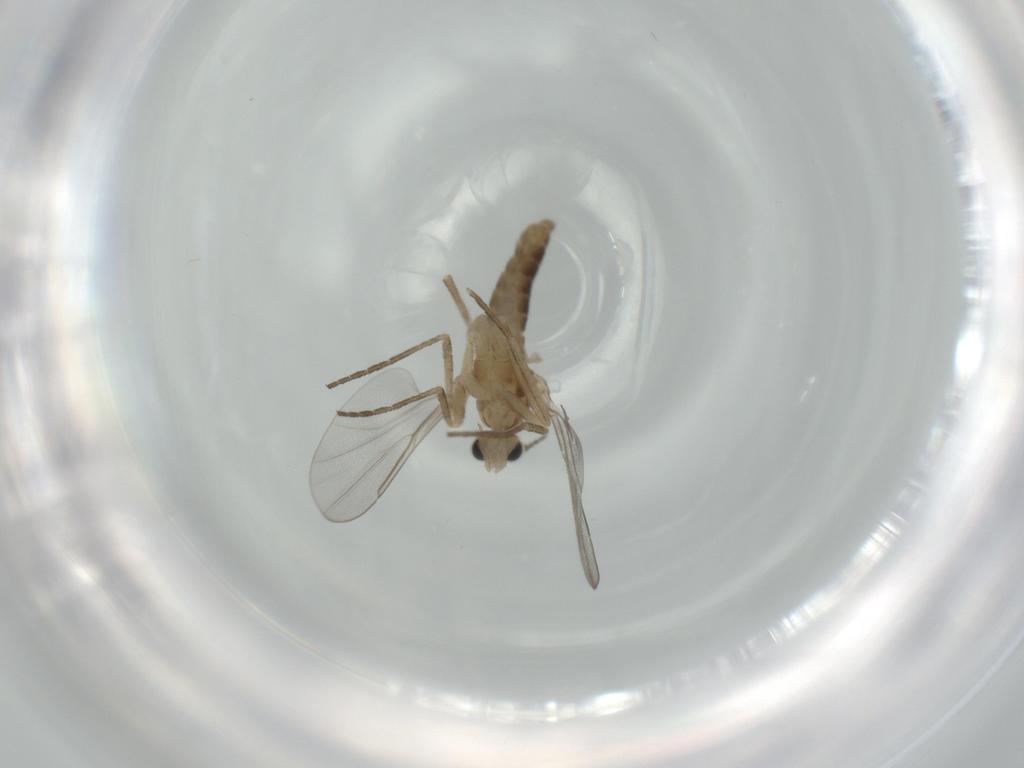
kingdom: Animalia
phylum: Arthropoda
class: Insecta
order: Diptera
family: Cecidomyiidae
